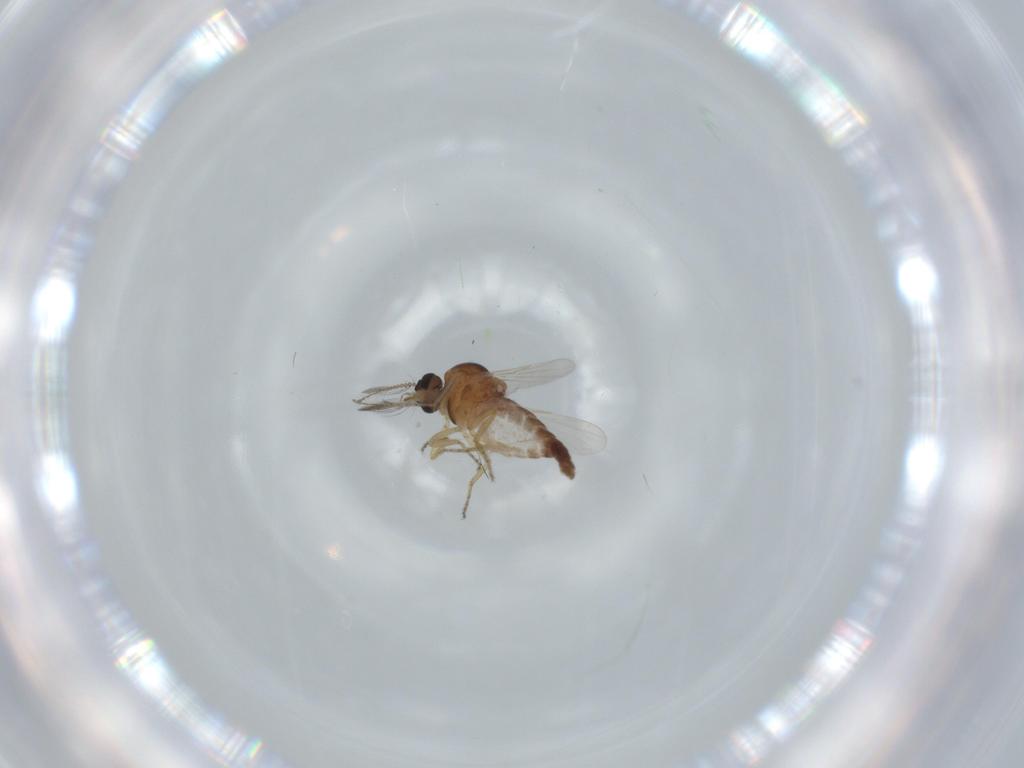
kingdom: Animalia
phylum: Arthropoda
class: Insecta
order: Diptera
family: Ceratopogonidae
